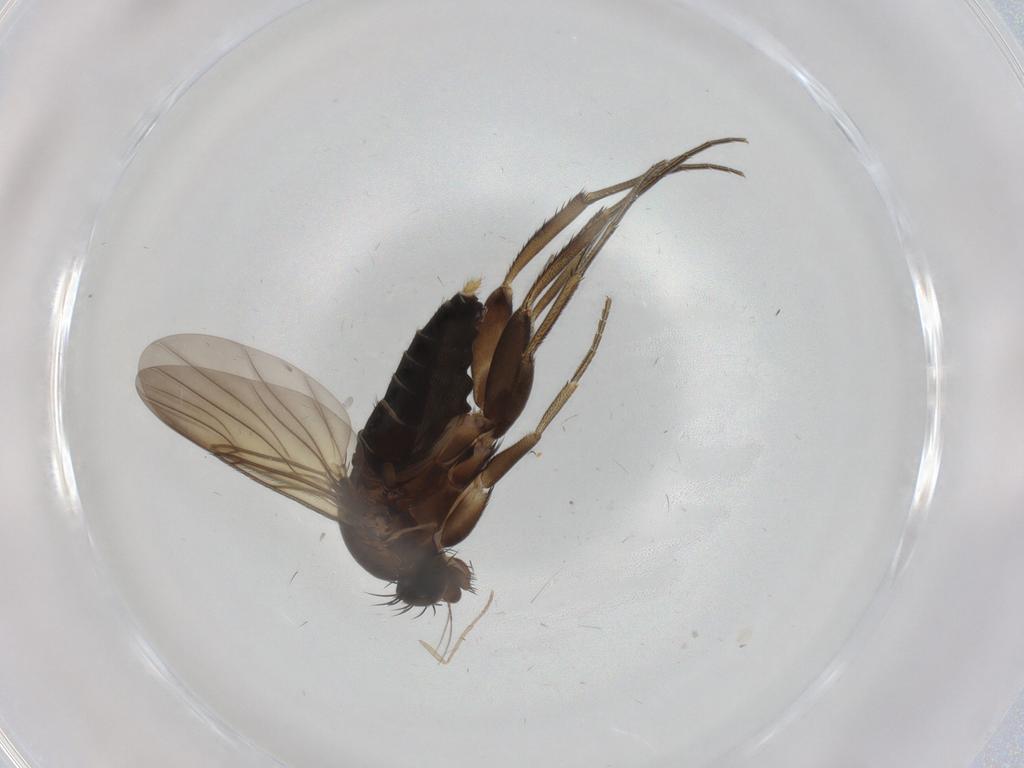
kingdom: Animalia
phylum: Arthropoda
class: Insecta
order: Diptera
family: Phoridae
